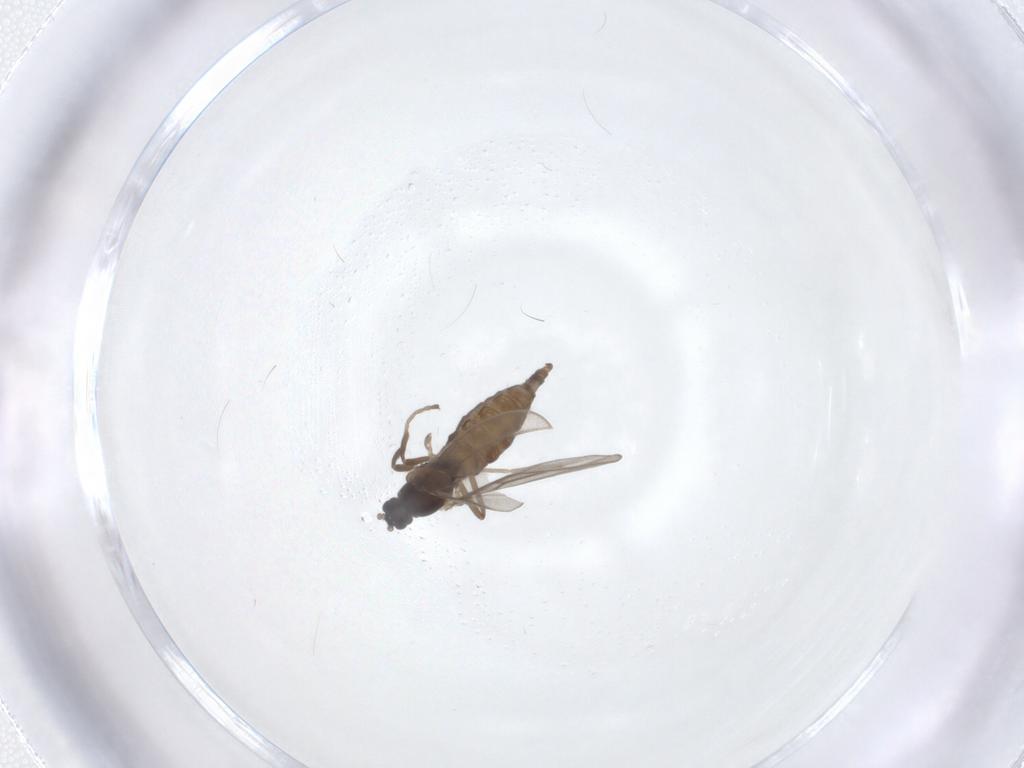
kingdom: Animalia
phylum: Arthropoda
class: Insecta
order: Diptera
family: Cecidomyiidae
